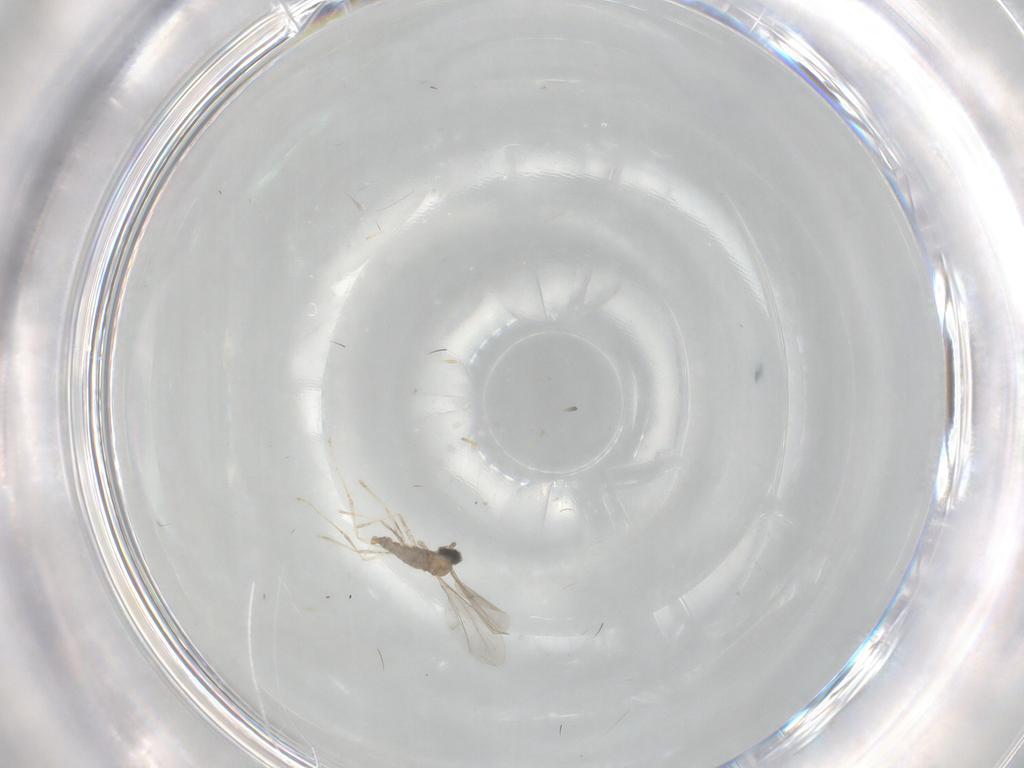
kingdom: Animalia
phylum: Arthropoda
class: Insecta
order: Diptera
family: Cecidomyiidae
